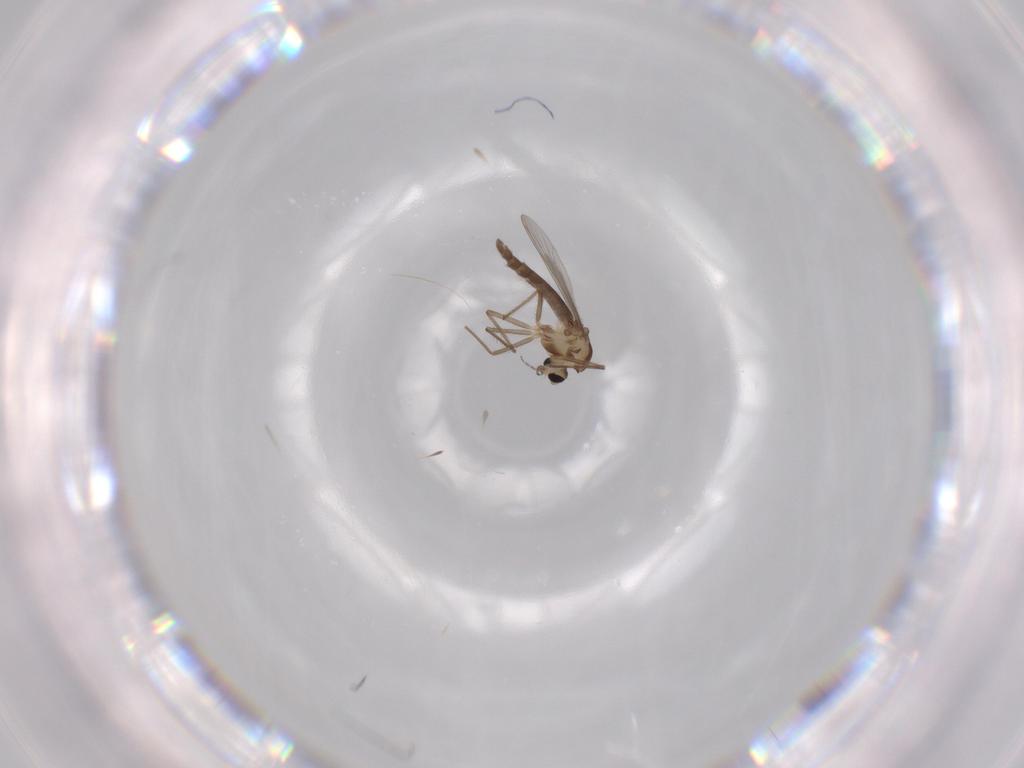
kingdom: Animalia
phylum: Arthropoda
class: Insecta
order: Diptera
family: Chironomidae
